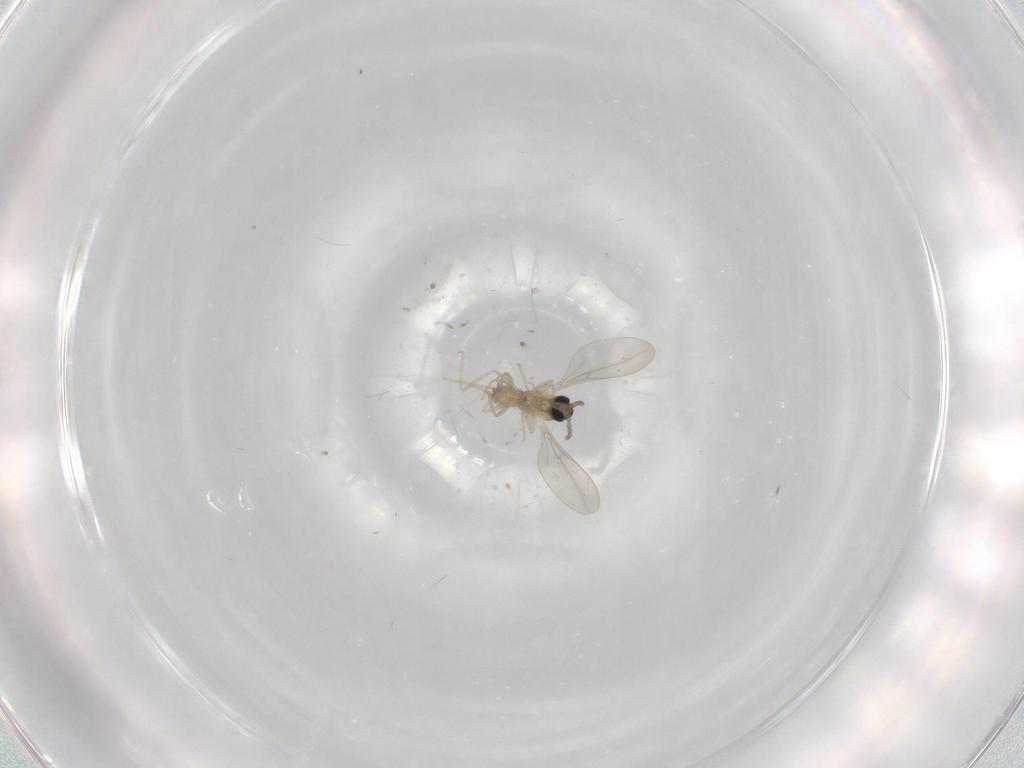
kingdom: Animalia
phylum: Arthropoda
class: Insecta
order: Diptera
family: Cecidomyiidae
